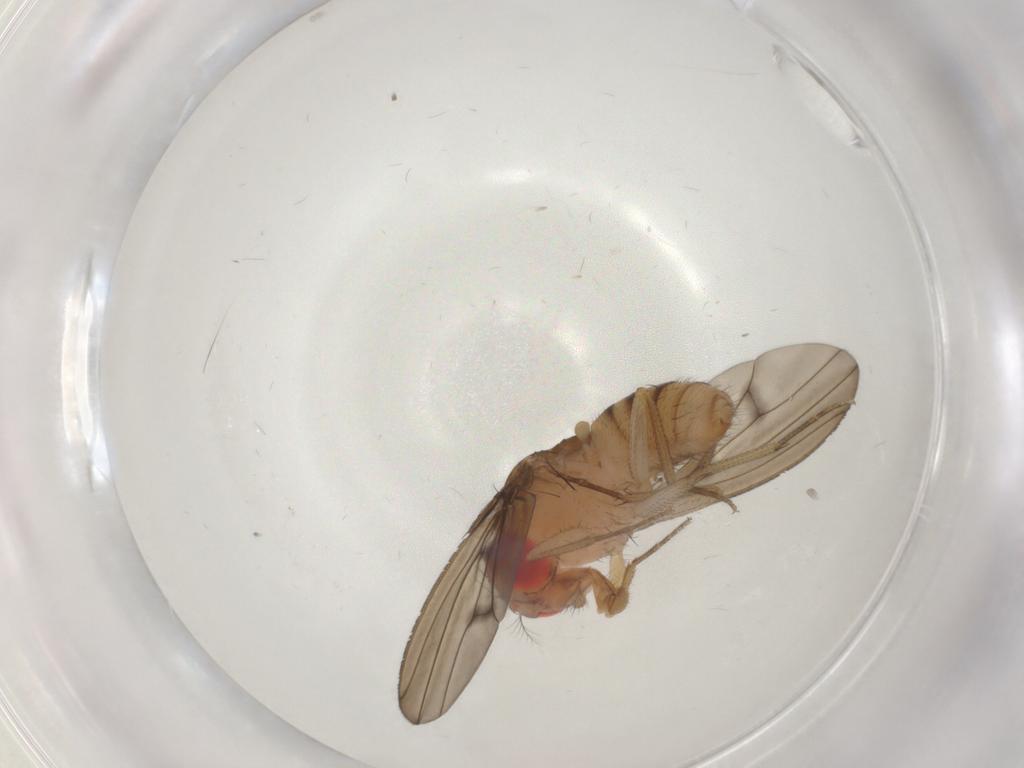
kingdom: Animalia
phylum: Arthropoda
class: Insecta
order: Diptera
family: Drosophilidae
